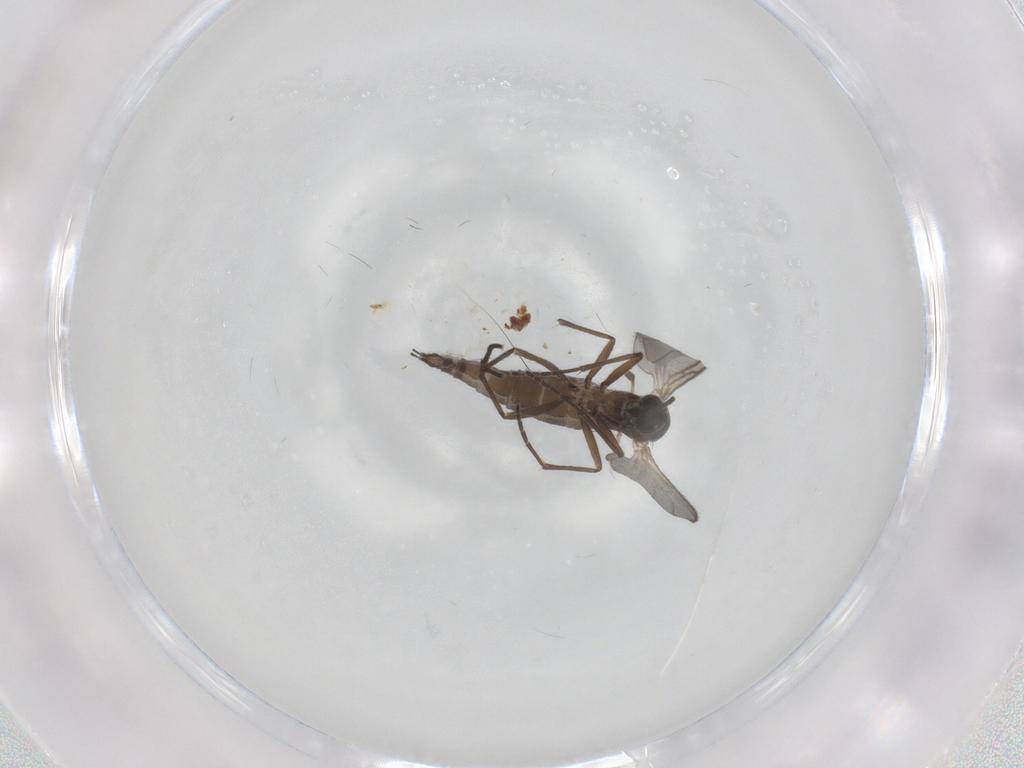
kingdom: Animalia
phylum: Arthropoda
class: Insecta
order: Diptera
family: Sciaridae
